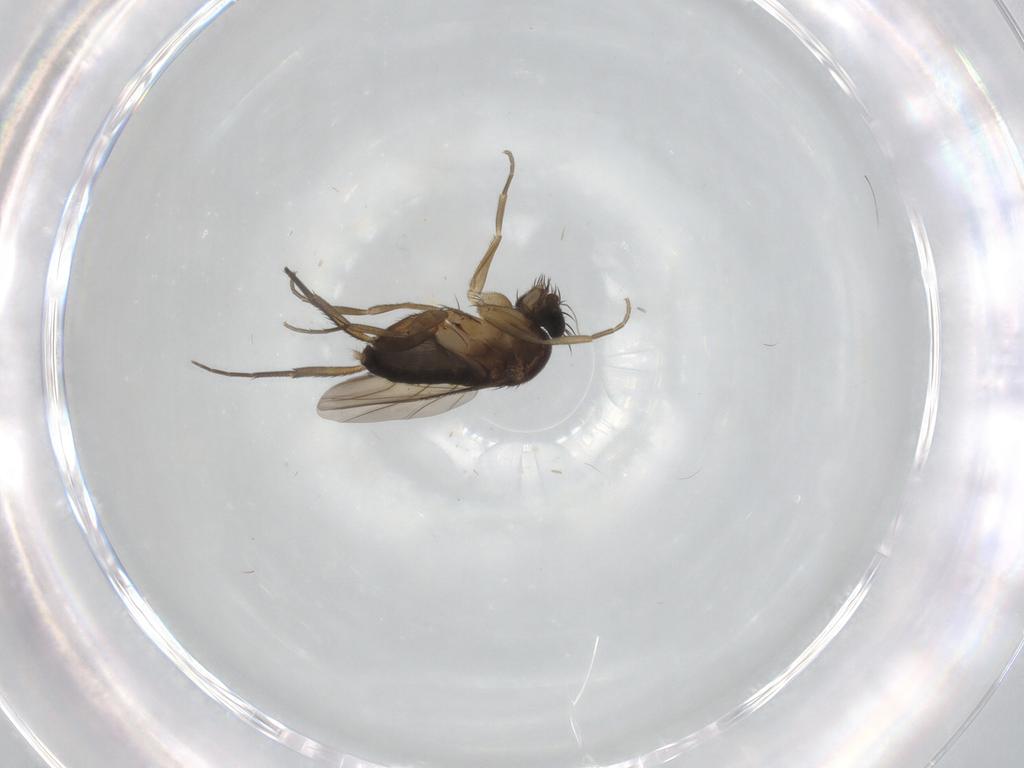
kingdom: Animalia
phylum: Arthropoda
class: Insecta
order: Diptera
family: Phoridae
